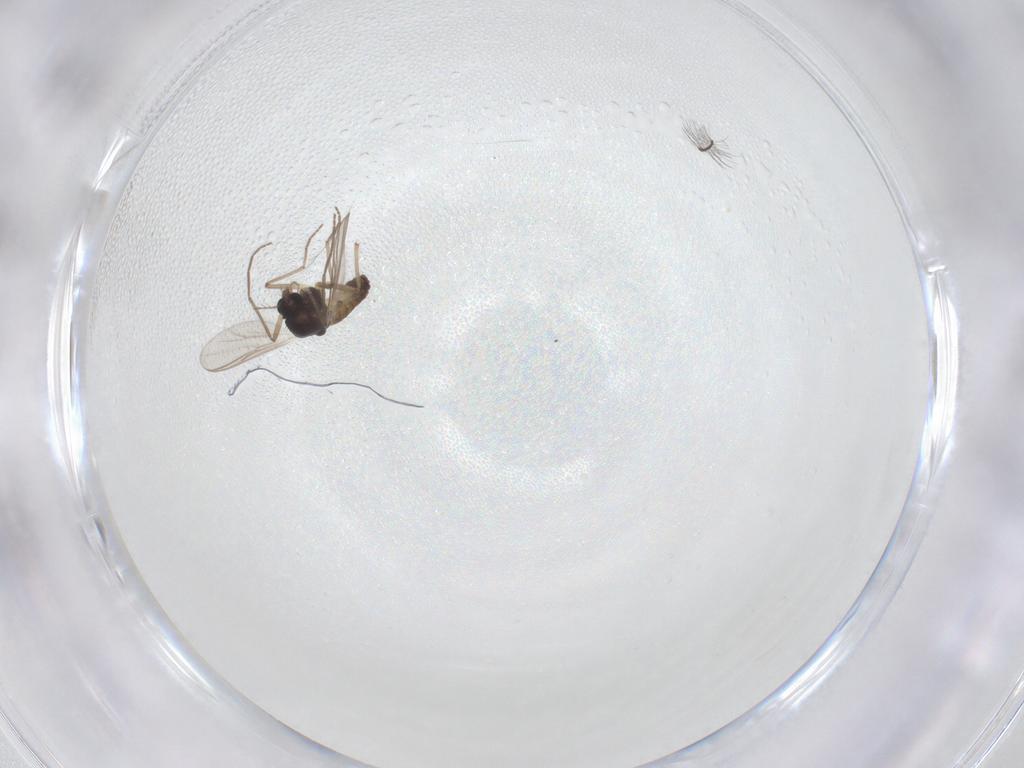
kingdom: Animalia
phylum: Arthropoda
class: Insecta
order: Diptera
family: Chironomidae
